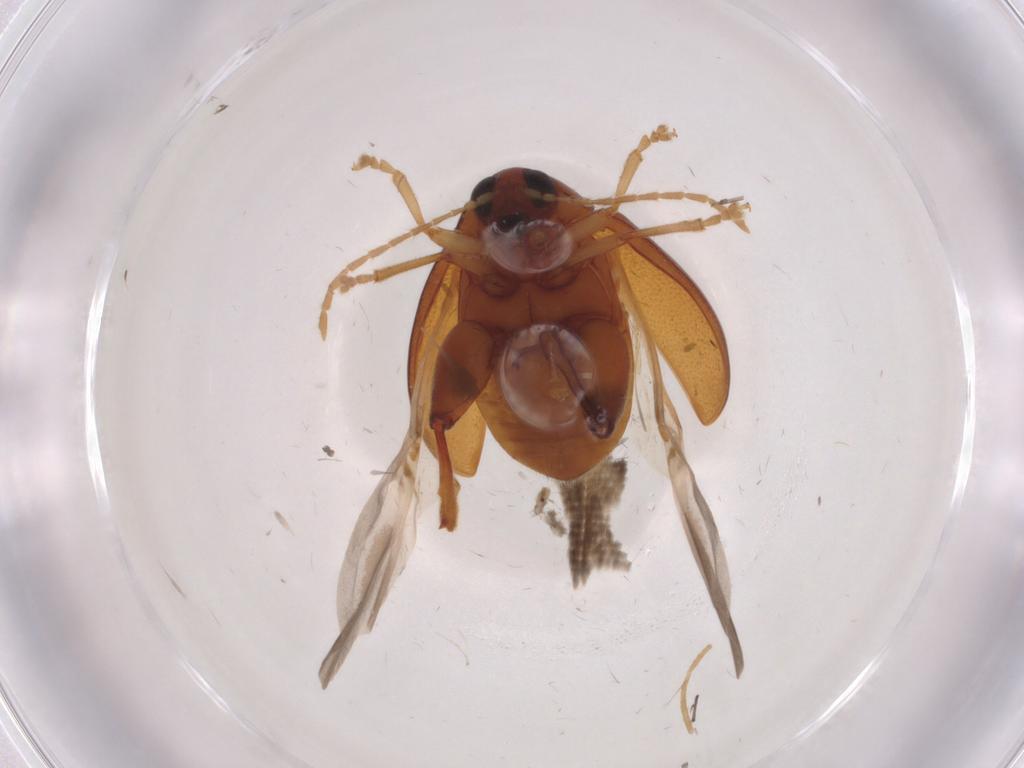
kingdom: Animalia
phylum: Arthropoda
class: Insecta
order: Coleoptera
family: Chrysomelidae
